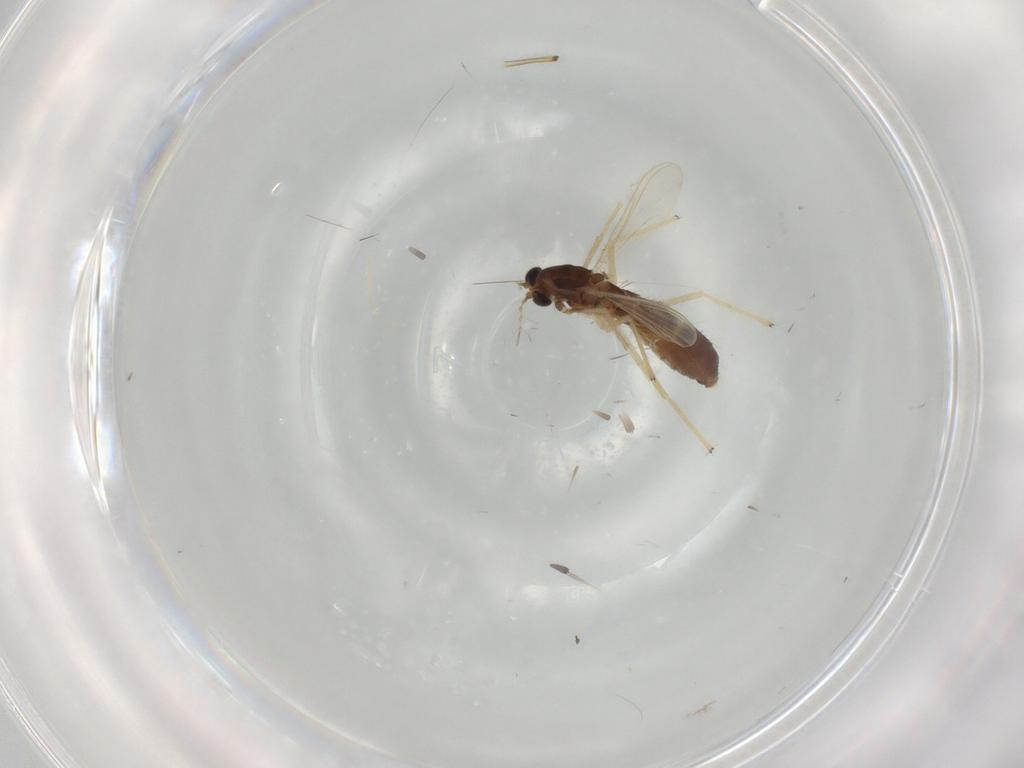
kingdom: Animalia
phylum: Arthropoda
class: Insecta
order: Diptera
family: Chironomidae
